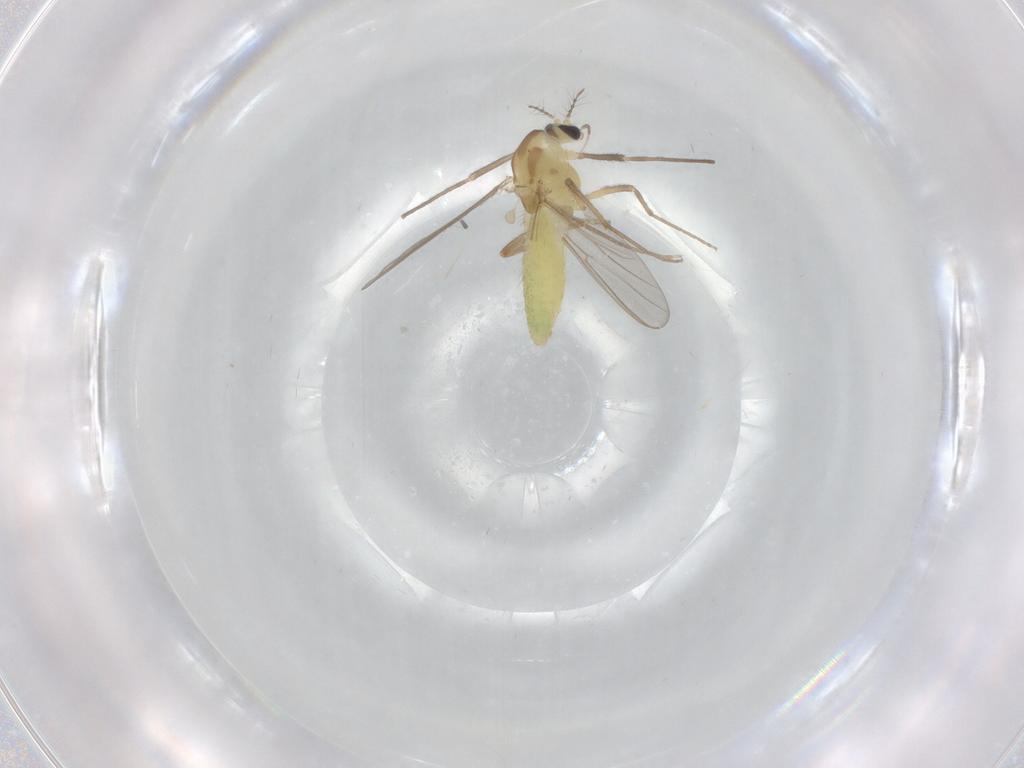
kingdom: Animalia
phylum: Arthropoda
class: Insecta
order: Diptera
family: Chironomidae
